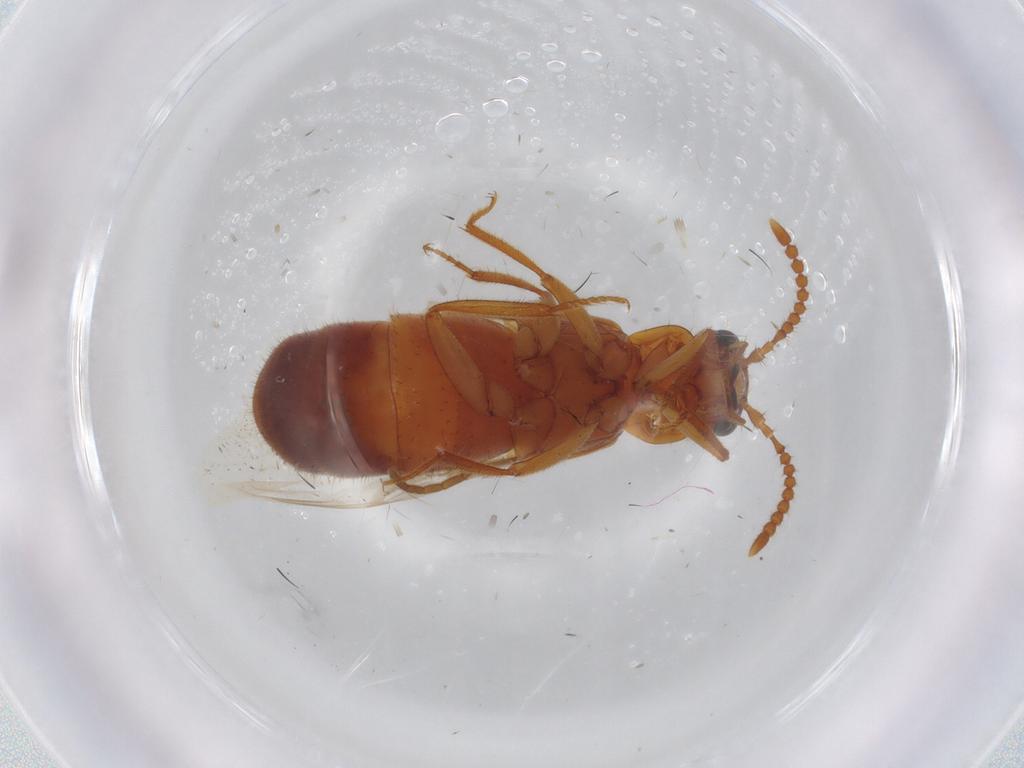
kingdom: Animalia
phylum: Arthropoda
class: Insecta
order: Coleoptera
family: Staphylinidae
